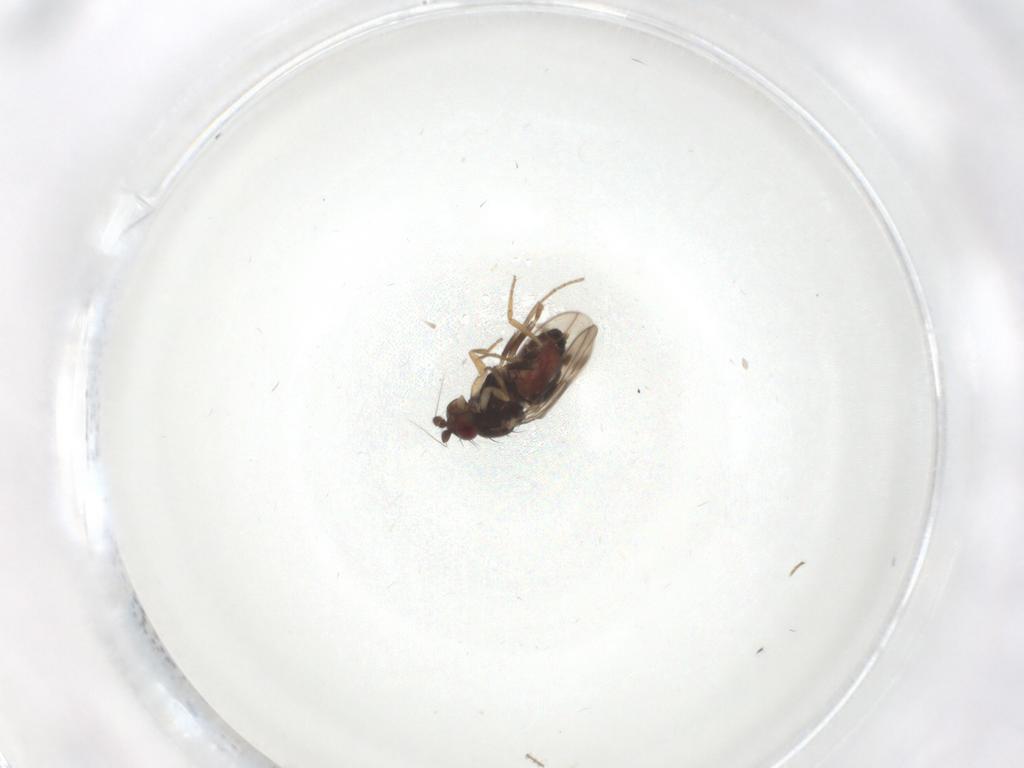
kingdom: Animalia
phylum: Arthropoda
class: Insecta
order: Diptera
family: Sphaeroceridae
